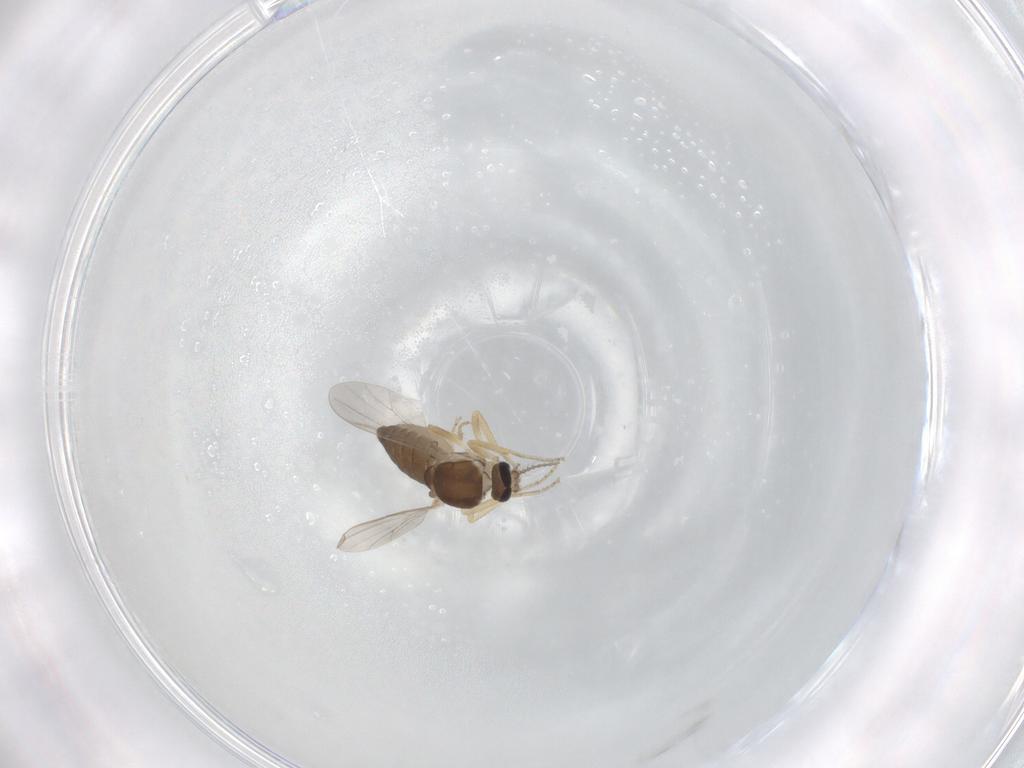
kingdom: Animalia
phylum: Arthropoda
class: Insecta
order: Diptera
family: Ceratopogonidae
